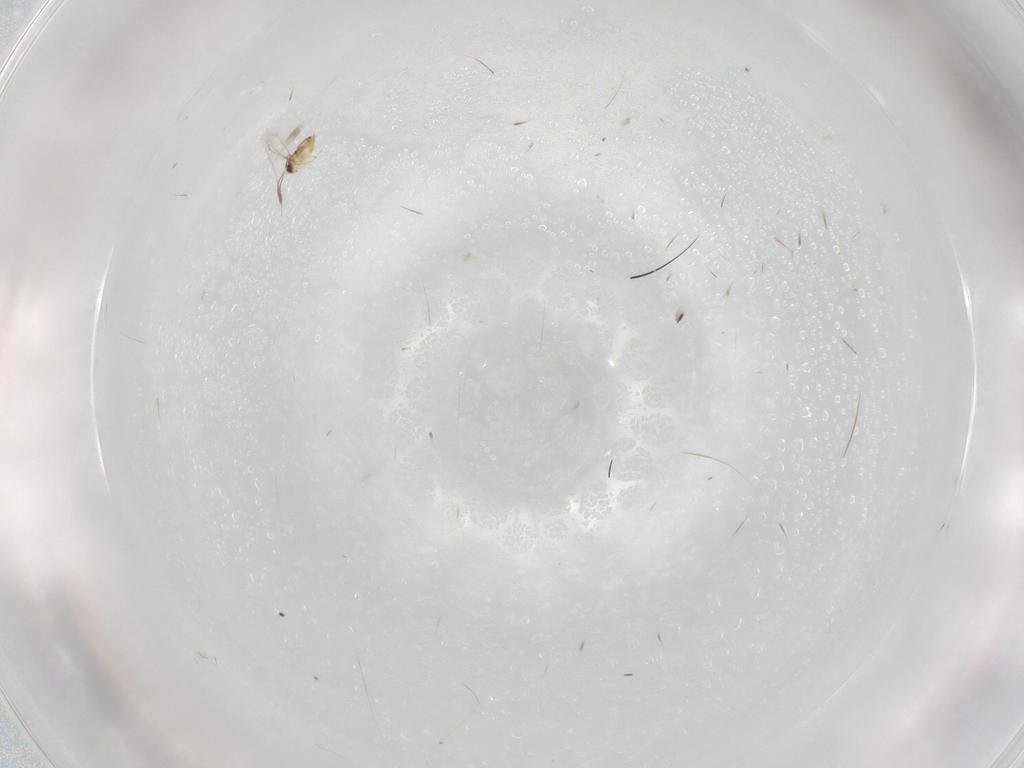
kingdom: Animalia
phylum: Arthropoda
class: Insecta
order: Hymenoptera
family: Mymaridae
